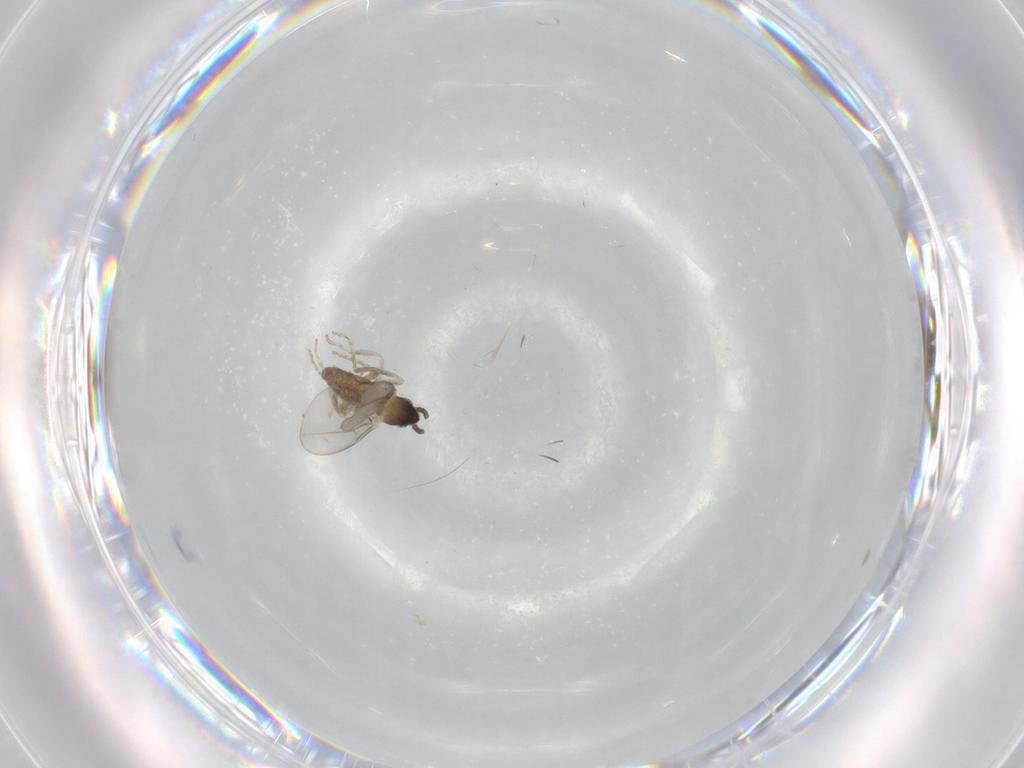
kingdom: Animalia
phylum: Arthropoda
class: Insecta
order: Diptera
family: Cecidomyiidae
